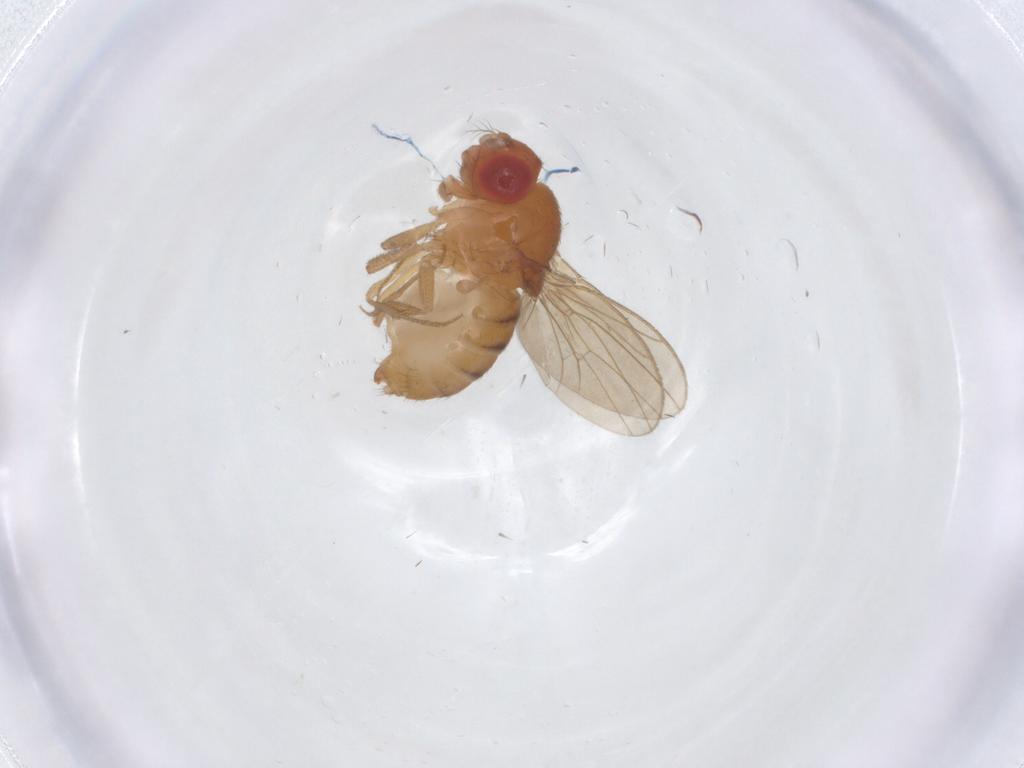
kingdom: Animalia
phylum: Arthropoda
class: Insecta
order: Diptera
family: Drosophilidae
